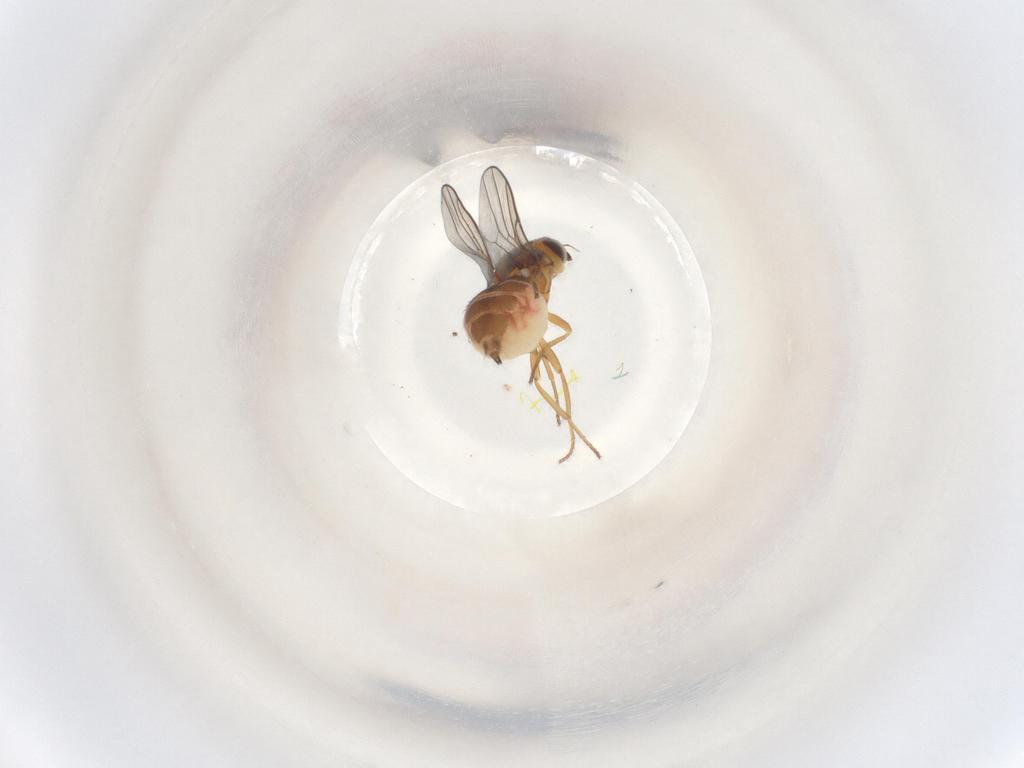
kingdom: Animalia
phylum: Arthropoda
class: Insecta
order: Diptera
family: Chloropidae
